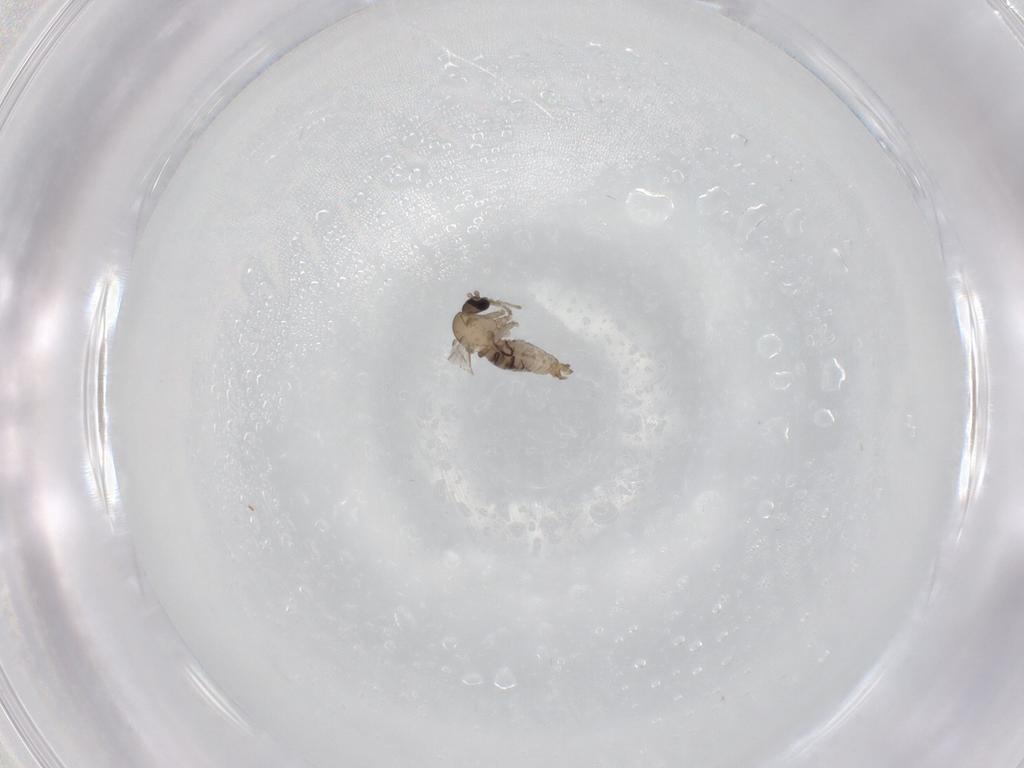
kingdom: Animalia
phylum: Arthropoda
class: Insecta
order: Diptera
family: Psychodidae
